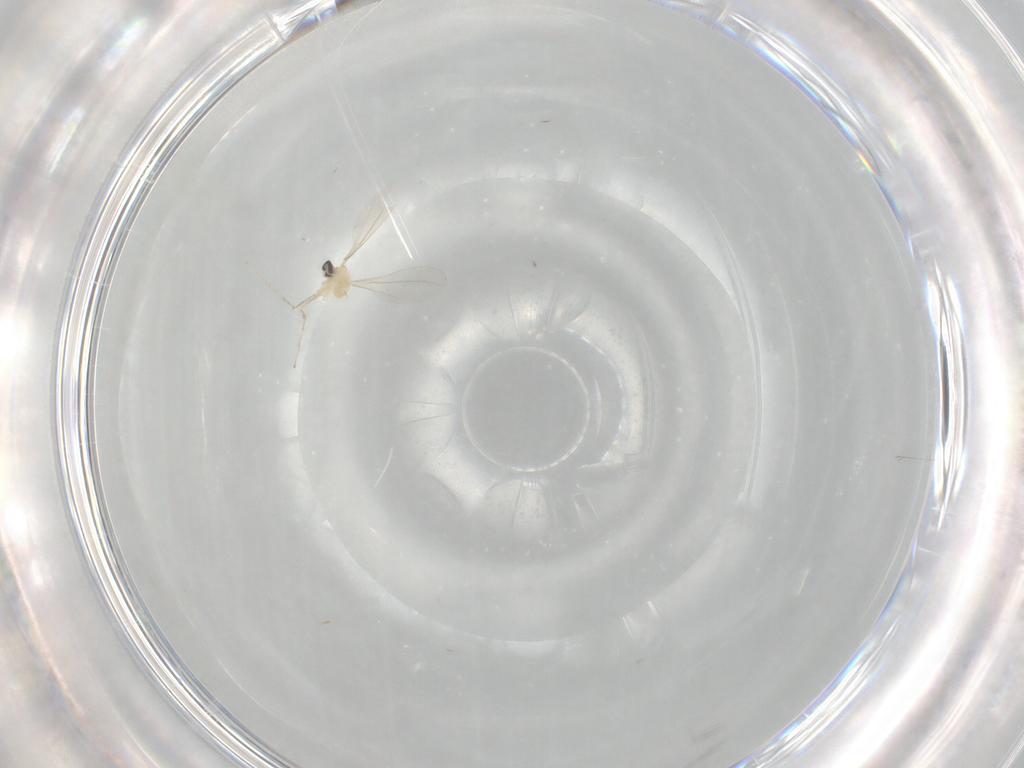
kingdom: Animalia
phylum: Arthropoda
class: Insecta
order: Diptera
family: Cecidomyiidae
